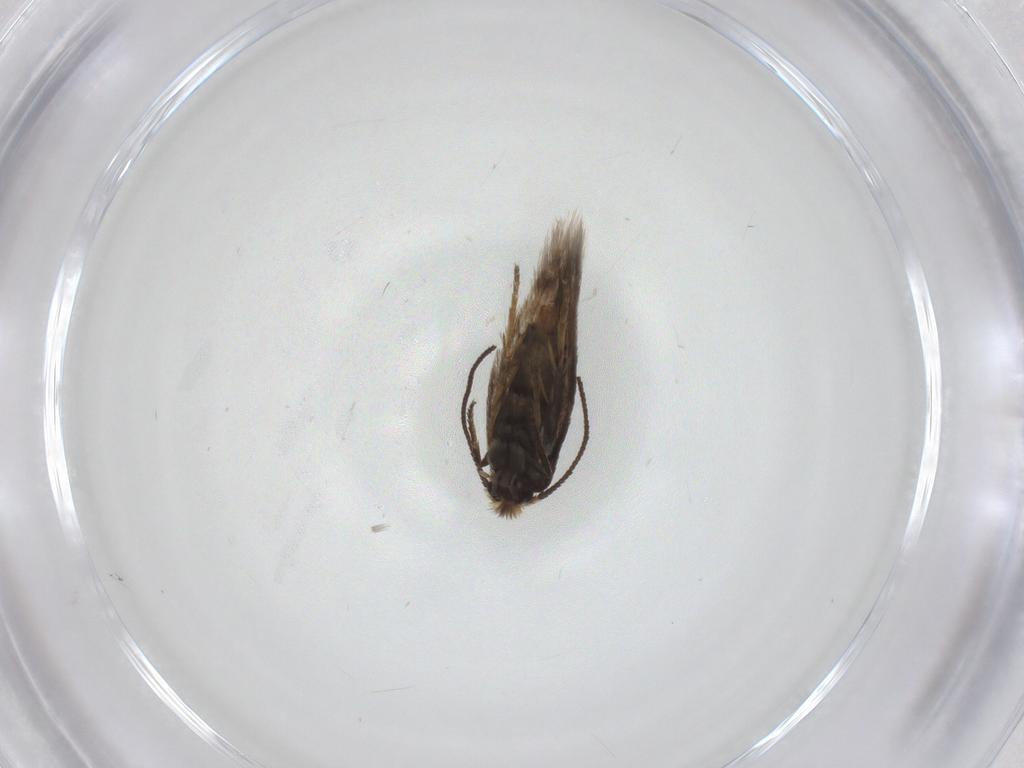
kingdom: Animalia
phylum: Arthropoda
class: Insecta
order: Lepidoptera
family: Nepticulidae
